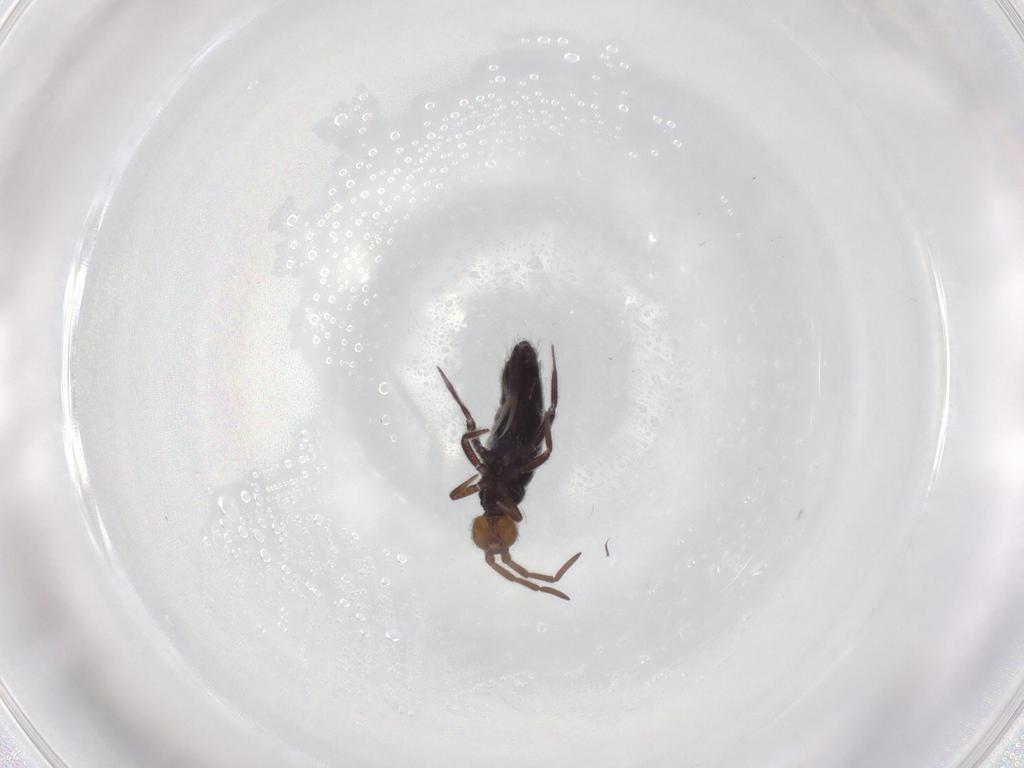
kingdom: Animalia
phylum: Arthropoda
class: Collembola
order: Entomobryomorpha
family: Isotomidae
